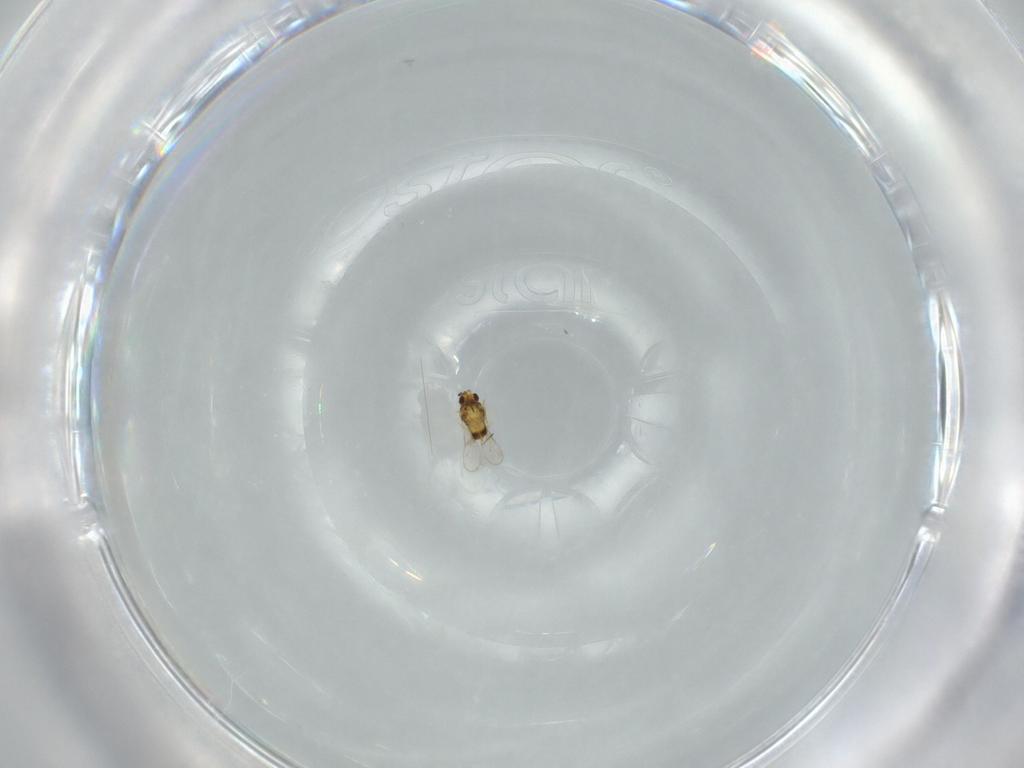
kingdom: Animalia
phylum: Arthropoda
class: Insecta
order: Hymenoptera
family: Aphelinidae
